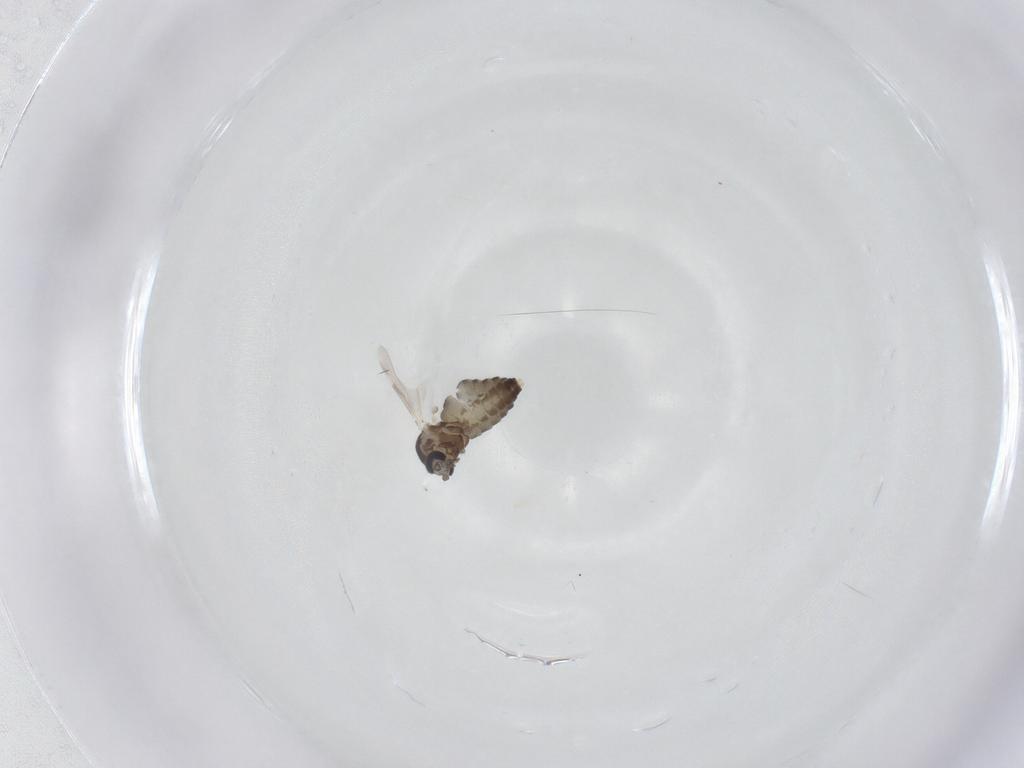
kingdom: Animalia
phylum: Arthropoda
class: Insecta
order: Diptera
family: Ceratopogonidae
